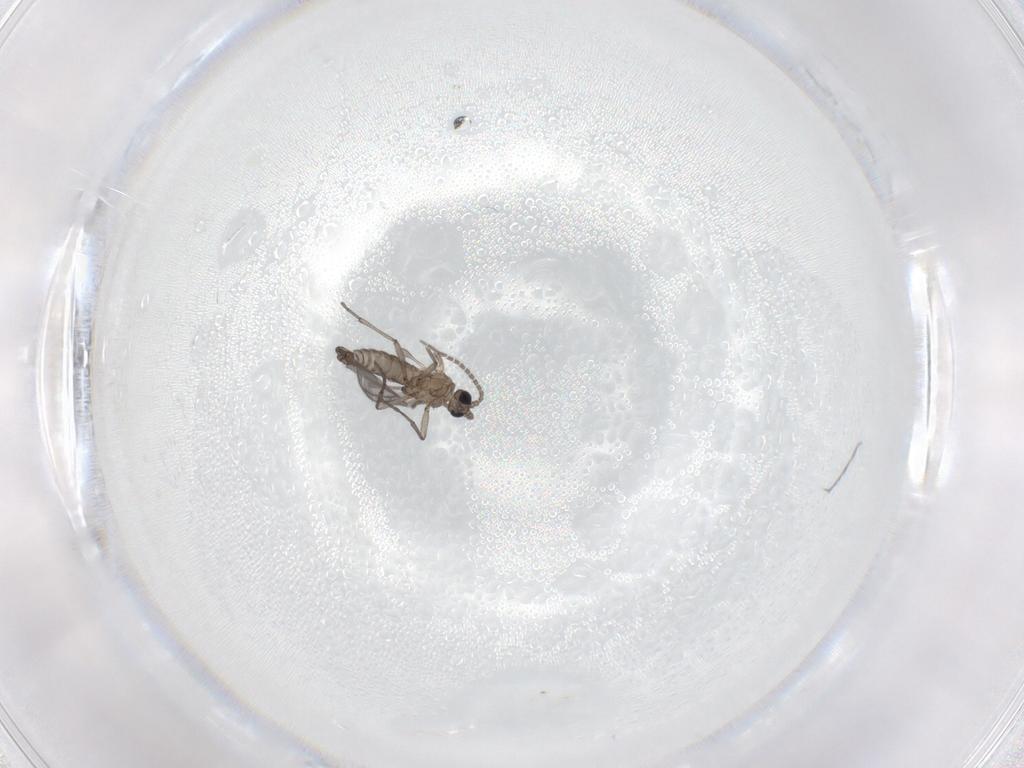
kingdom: Animalia
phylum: Arthropoda
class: Insecta
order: Diptera
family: Sciaridae
